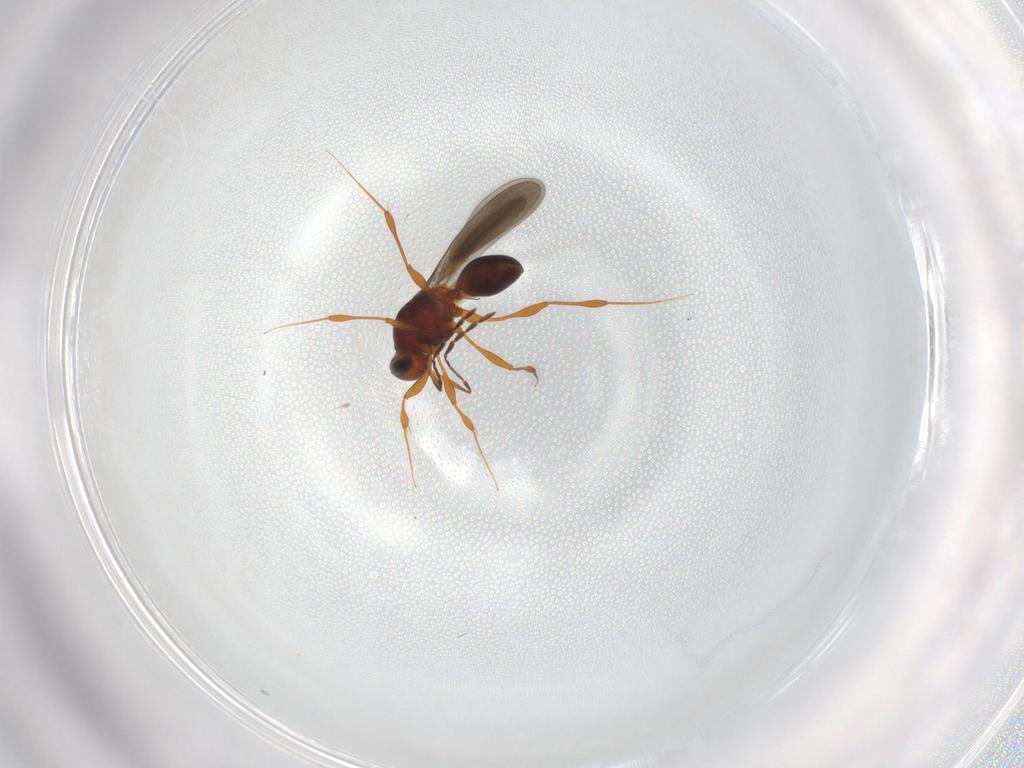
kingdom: Animalia
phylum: Arthropoda
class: Insecta
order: Hymenoptera
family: Platygastridae
